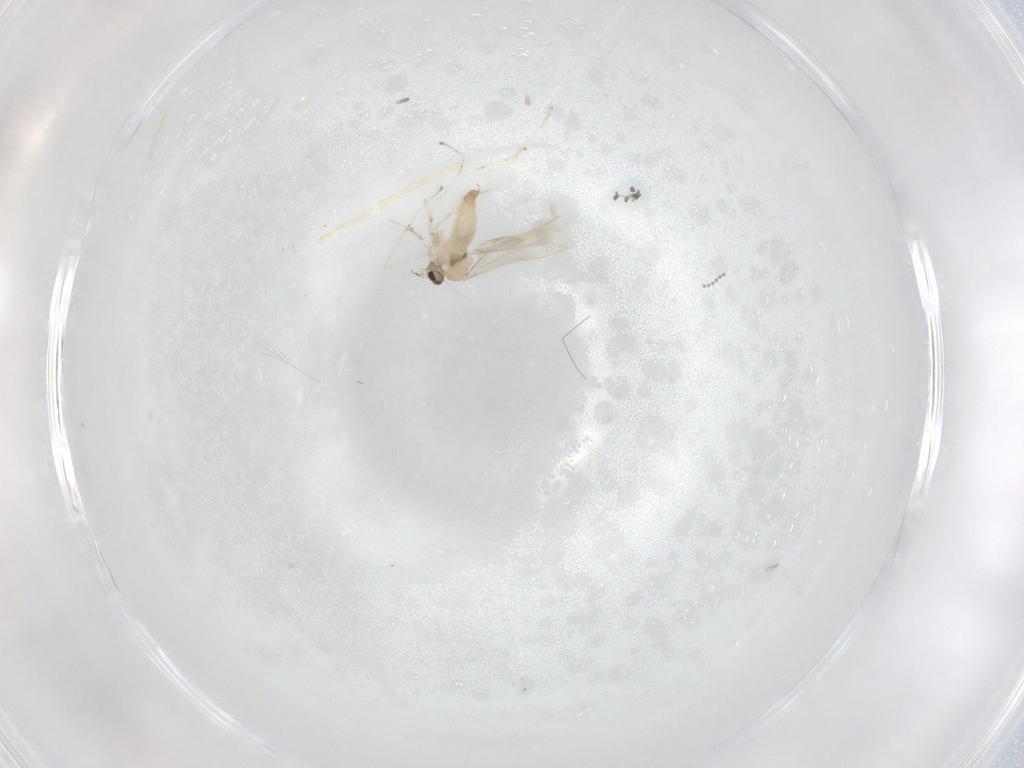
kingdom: Animalia
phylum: Arthropoda
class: Insecta
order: Diptera
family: Cecidomyiidae
